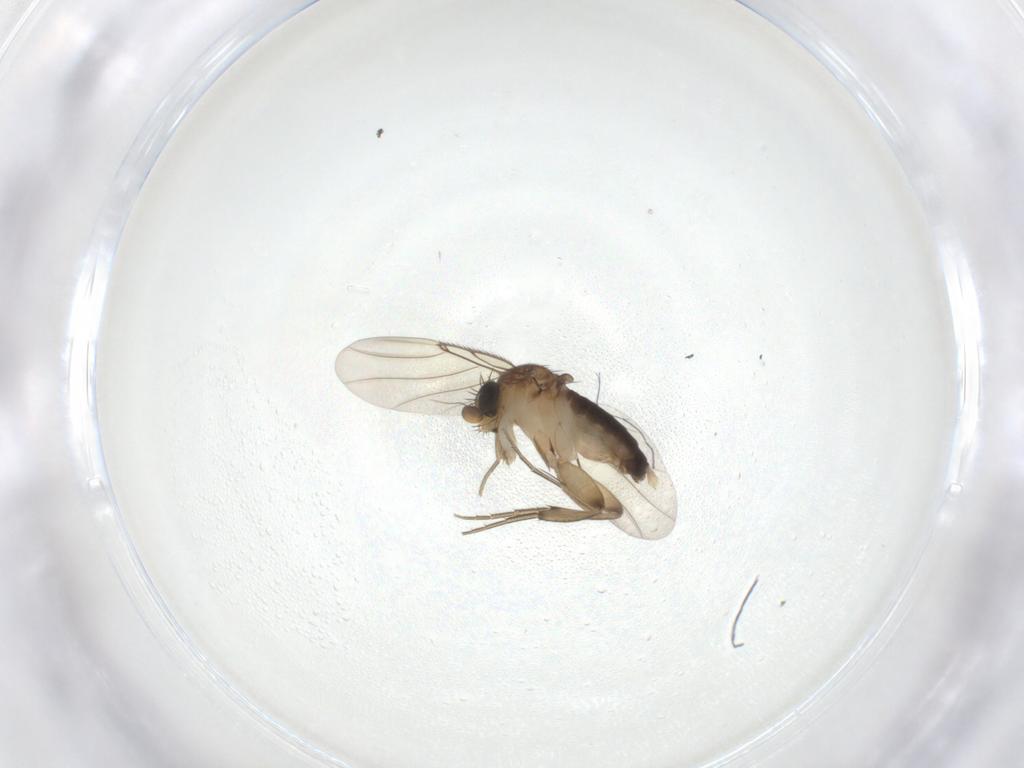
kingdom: Animalia
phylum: Arthropoda
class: Insecta
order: Diptera
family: Phoridae
